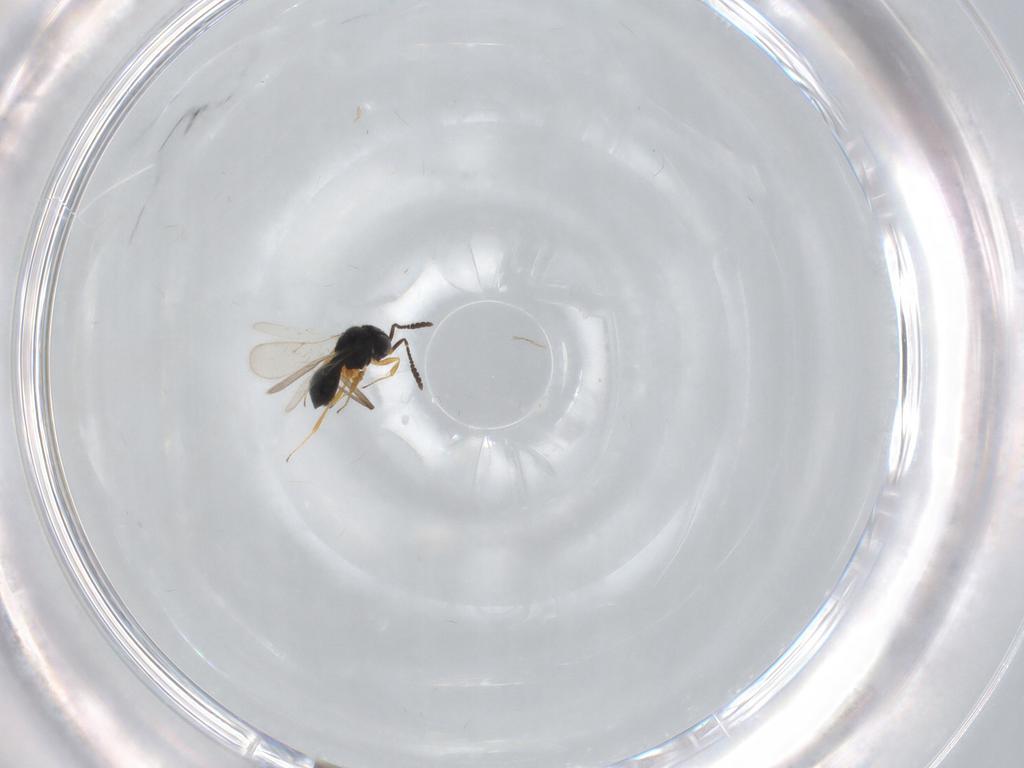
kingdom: Animalia
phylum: Arthropoda
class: Insecta
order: Hymenoptera
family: Scelionidae
